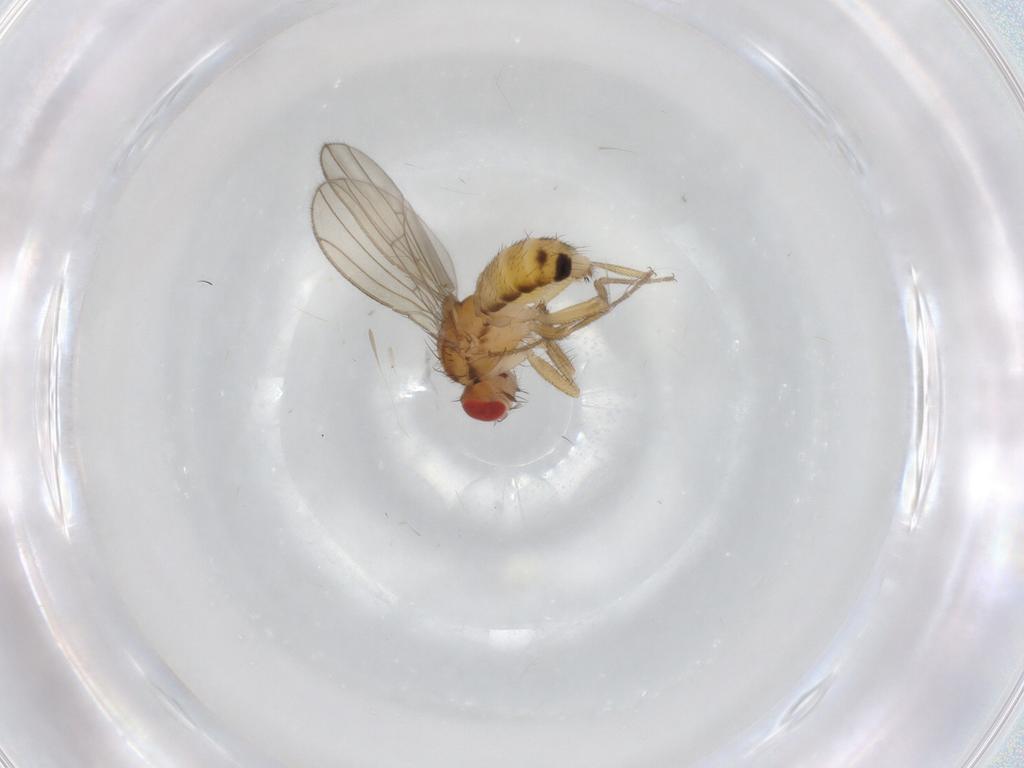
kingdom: Animalia
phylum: Arthropoda
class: Insecta
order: Diptera
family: Drosophilidae
